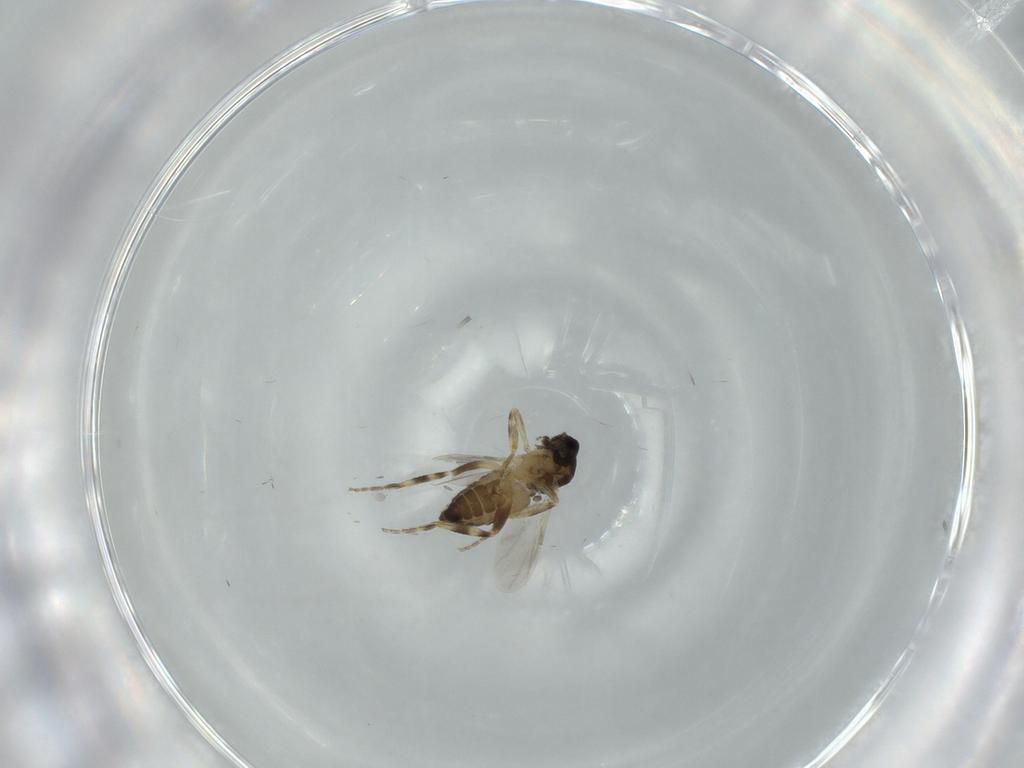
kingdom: Animalia
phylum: Arthropoda
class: Insecta
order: Diptera
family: Ceratopogonidae
